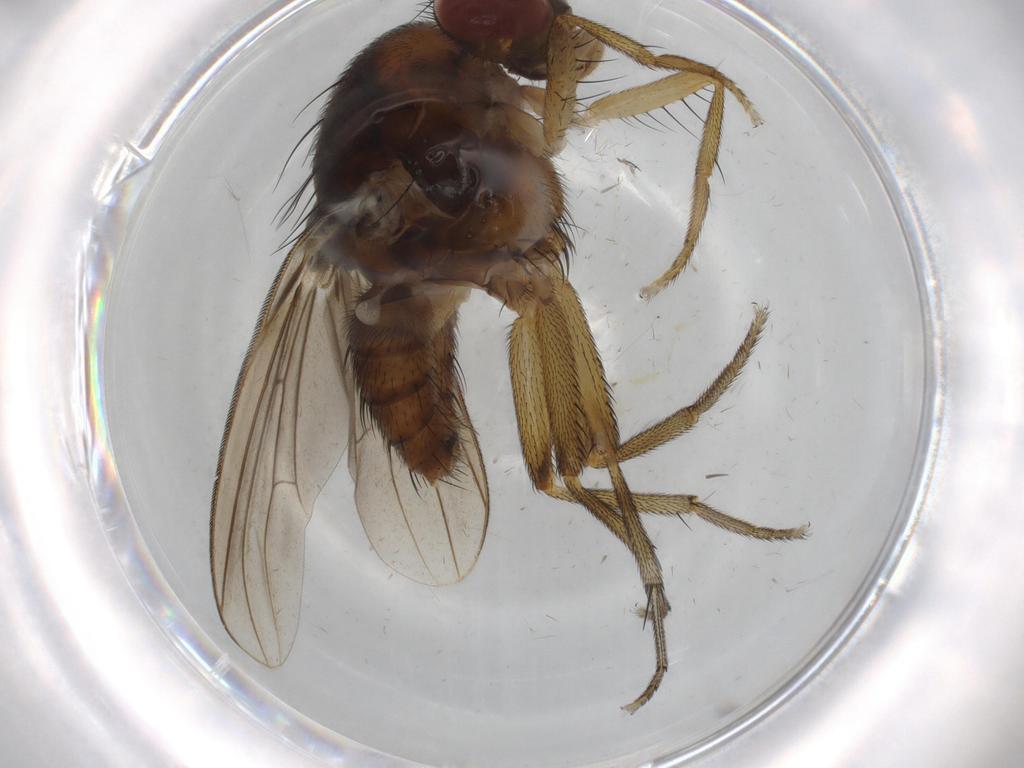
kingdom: Animalia
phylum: Arthropoda
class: Insecta
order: Diptera
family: Cecidomyiidae
